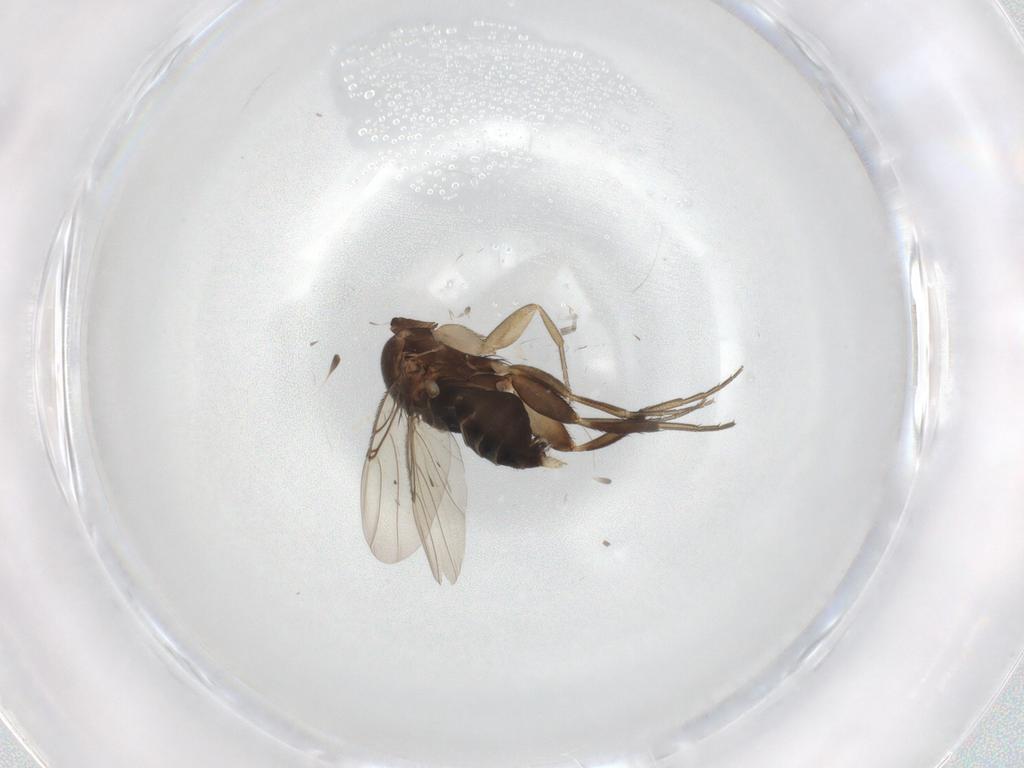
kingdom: Animalia
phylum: Arthropoda
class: Insecta
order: Diptera
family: Phoridae
